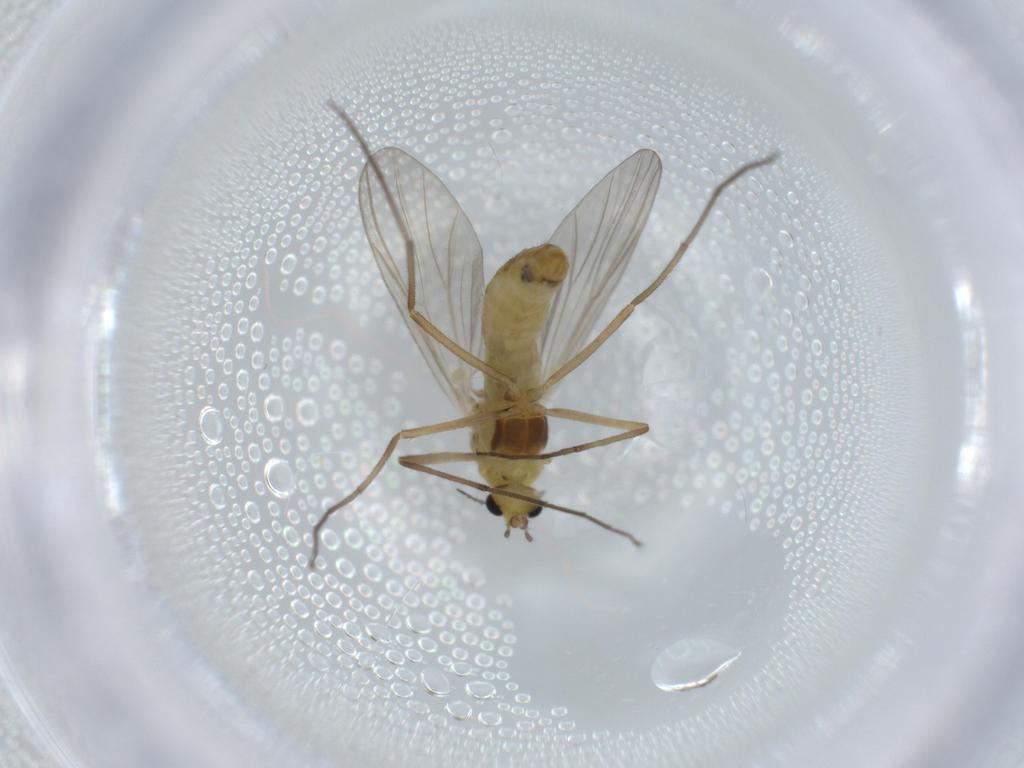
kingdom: Animalia
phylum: Arthropoda
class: Insecta
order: Diptera
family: Chironomidae
